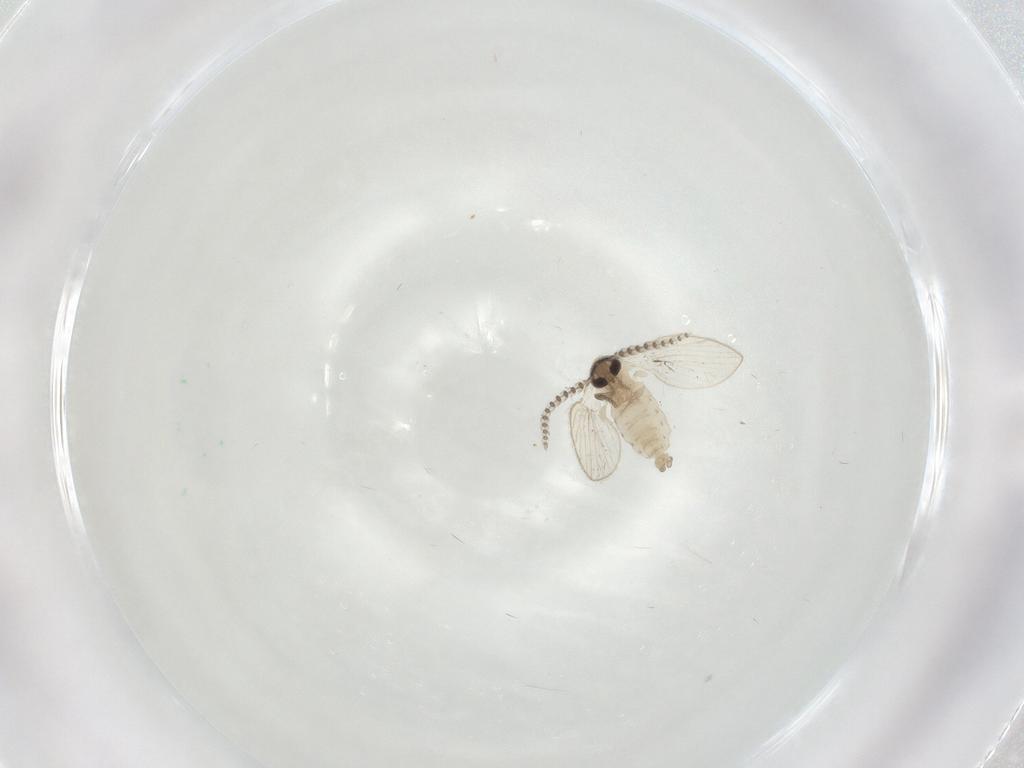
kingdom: Animalia
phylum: Arthropoda
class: Insecta
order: Diptera
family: Psychodidae
